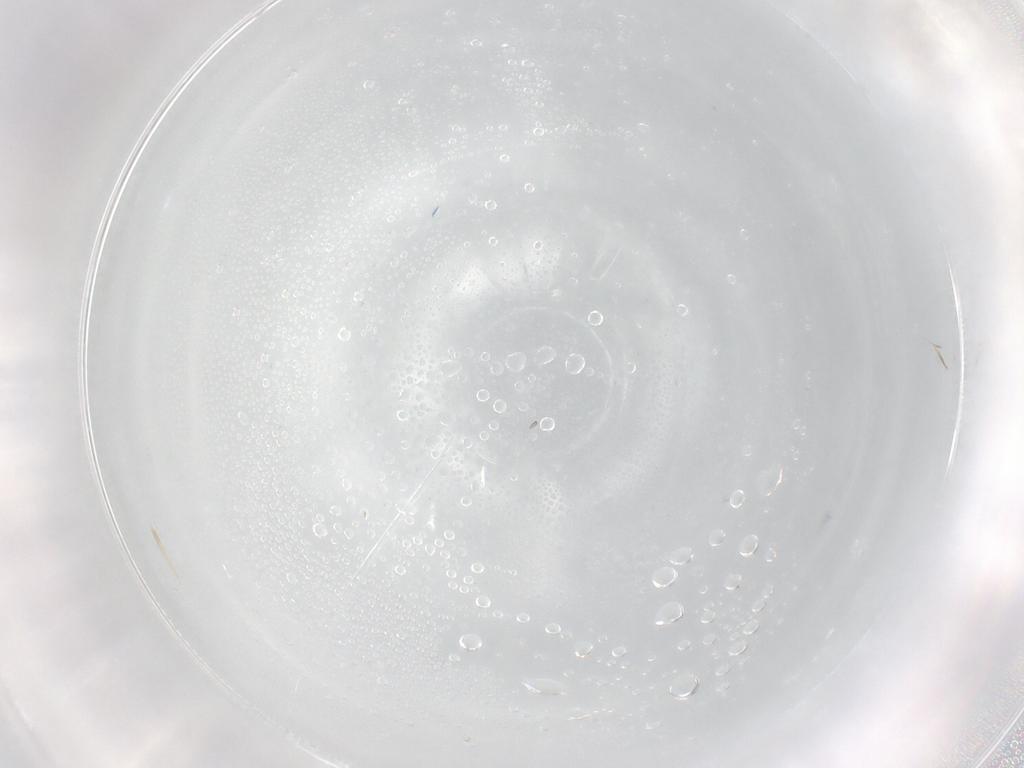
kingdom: Animalia
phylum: Arthropoda
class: Insecta
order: Diptera
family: Cecidomyiidae
